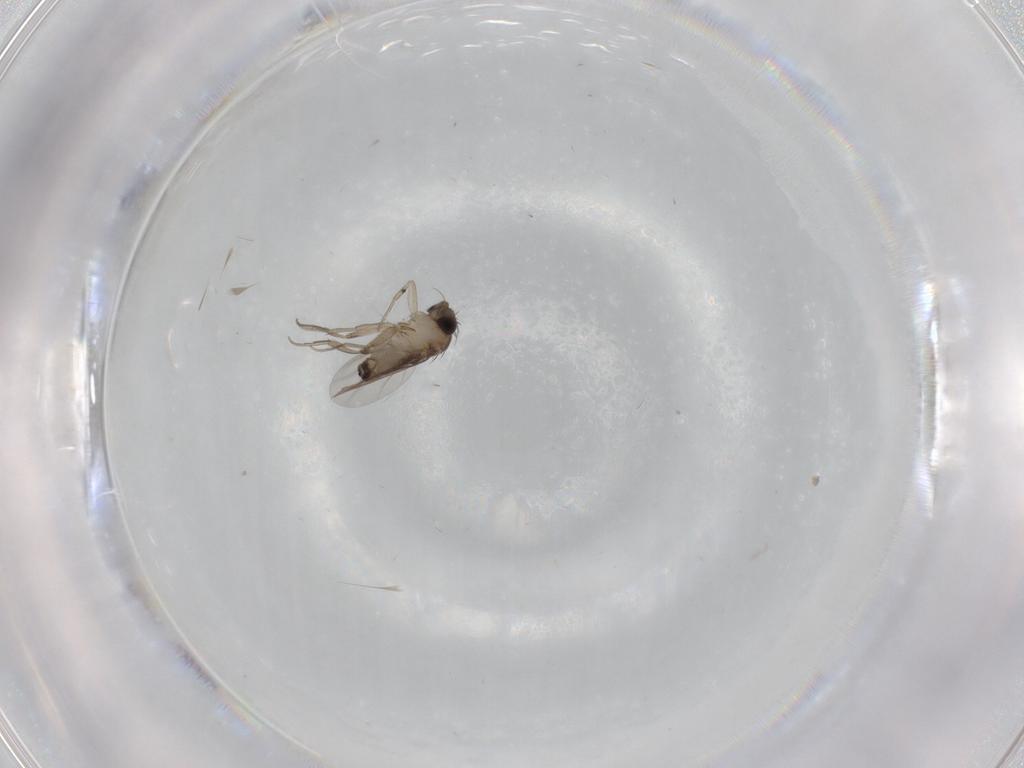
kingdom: Animalia
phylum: Arthropoda
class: Insecta
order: Diptera
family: Phoridae
